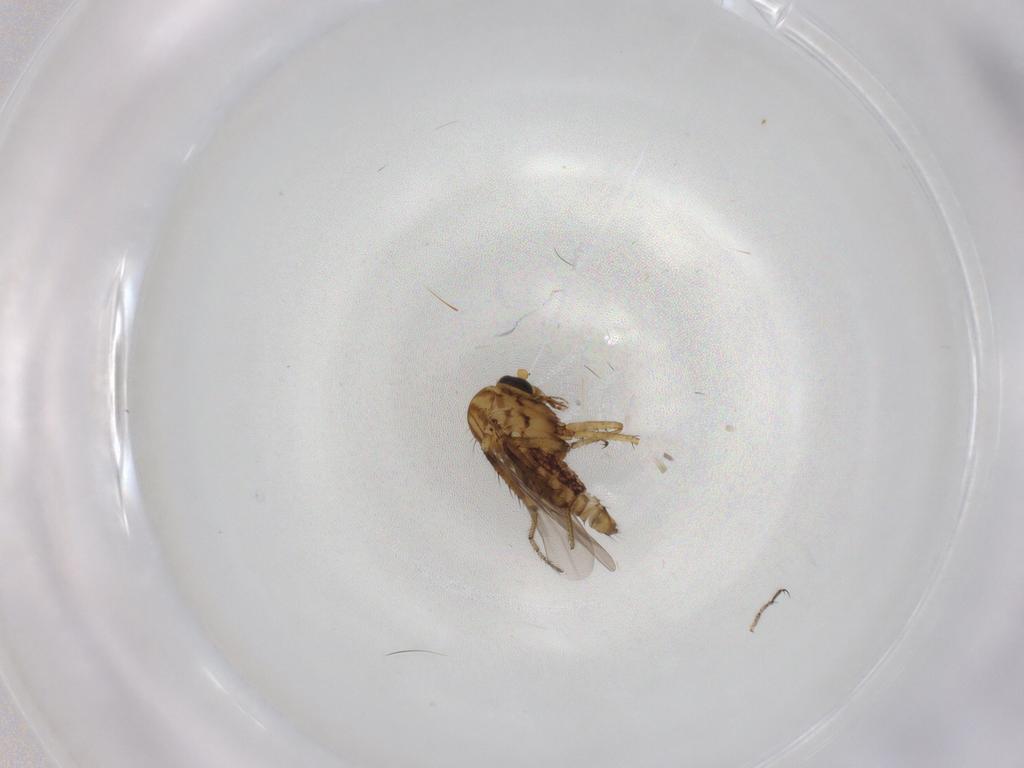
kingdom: Animalia
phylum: Arthropoda
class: Insecta
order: Diptera
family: Ceratopogonidae
